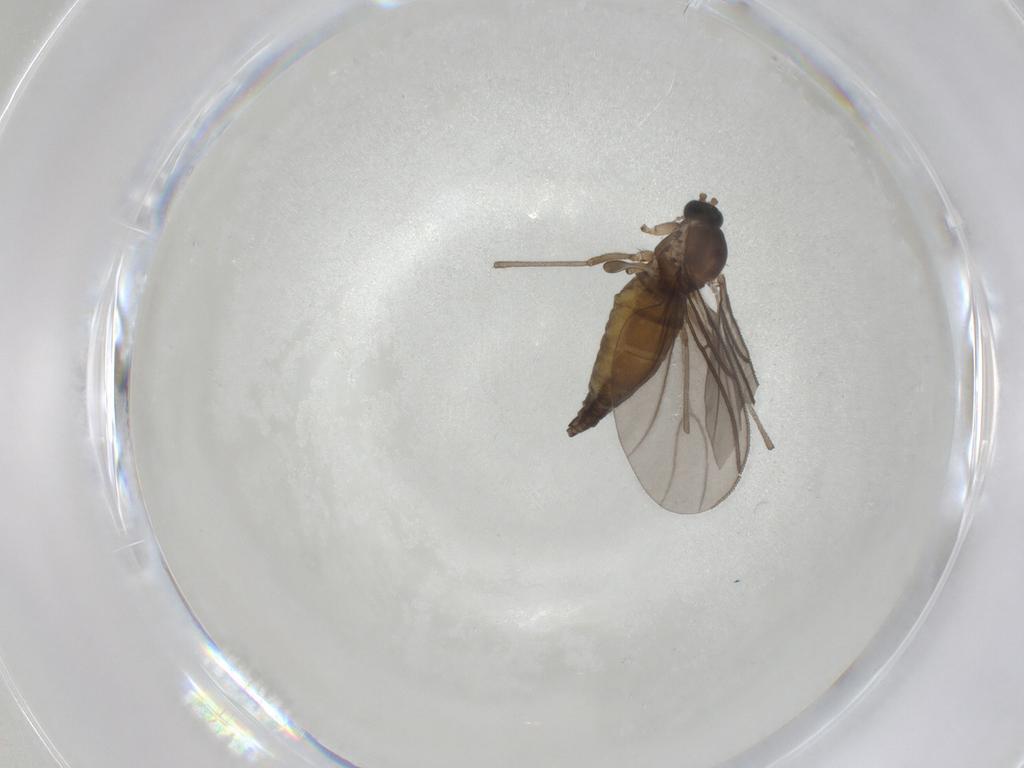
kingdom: Animalia
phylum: Arthropoda
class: Insecta
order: Diptera
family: Sciaridae
